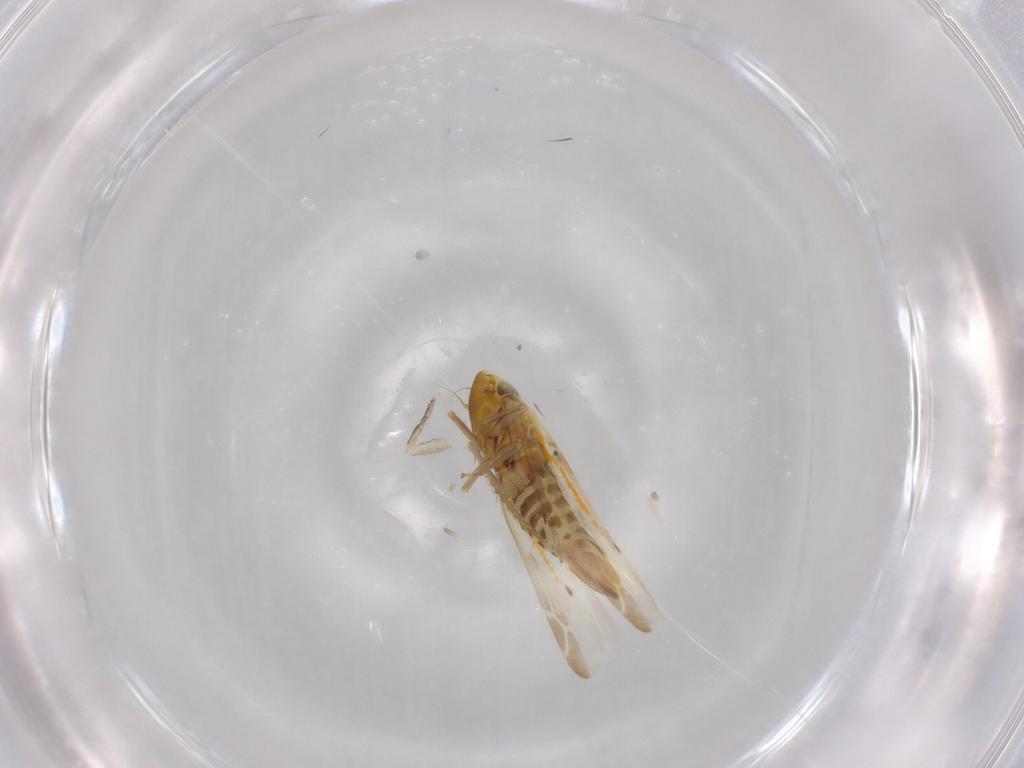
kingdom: Animalia
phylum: Arthropoda
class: Insecta
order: Hemiptera
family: Cicadellidae
